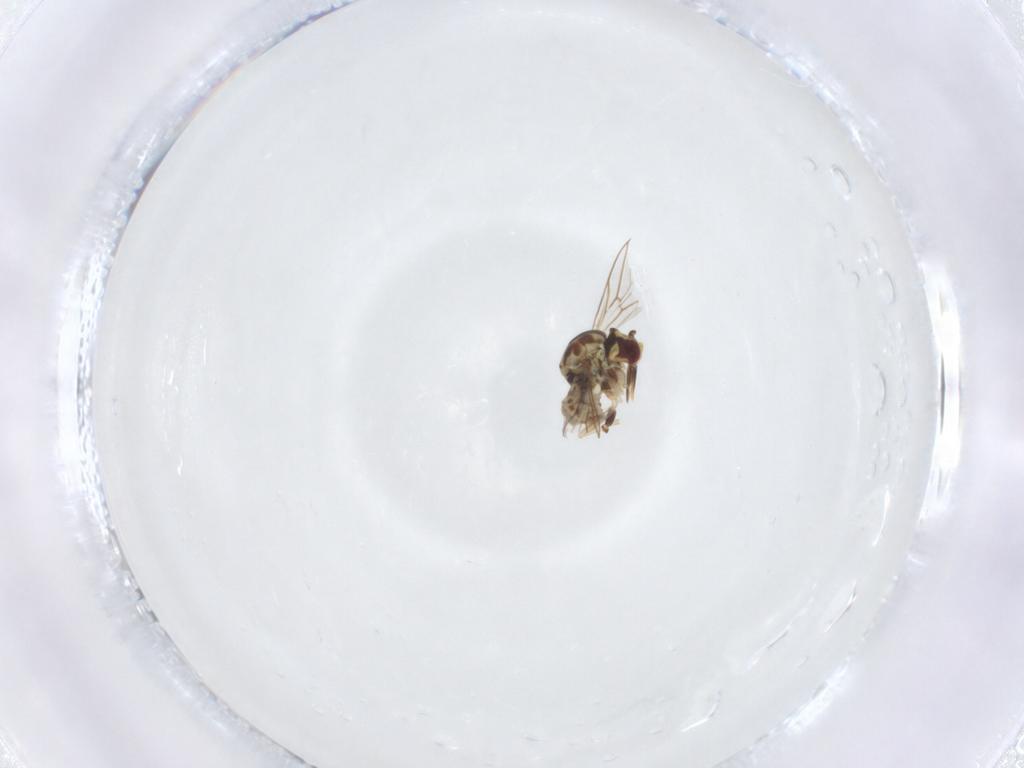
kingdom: Animalia
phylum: Arthropoda
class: Insecta
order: Diptera
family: Bombyliidae
